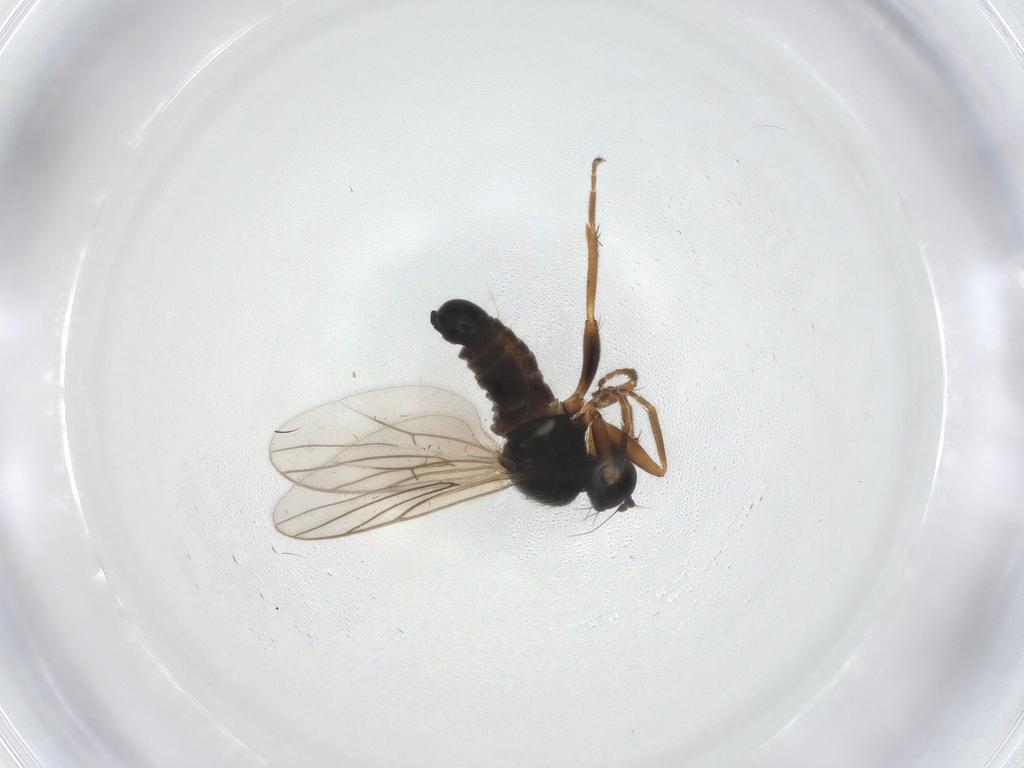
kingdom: Animalia
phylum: Arthropoda
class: Insecta
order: Diptera
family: Hybotidae
